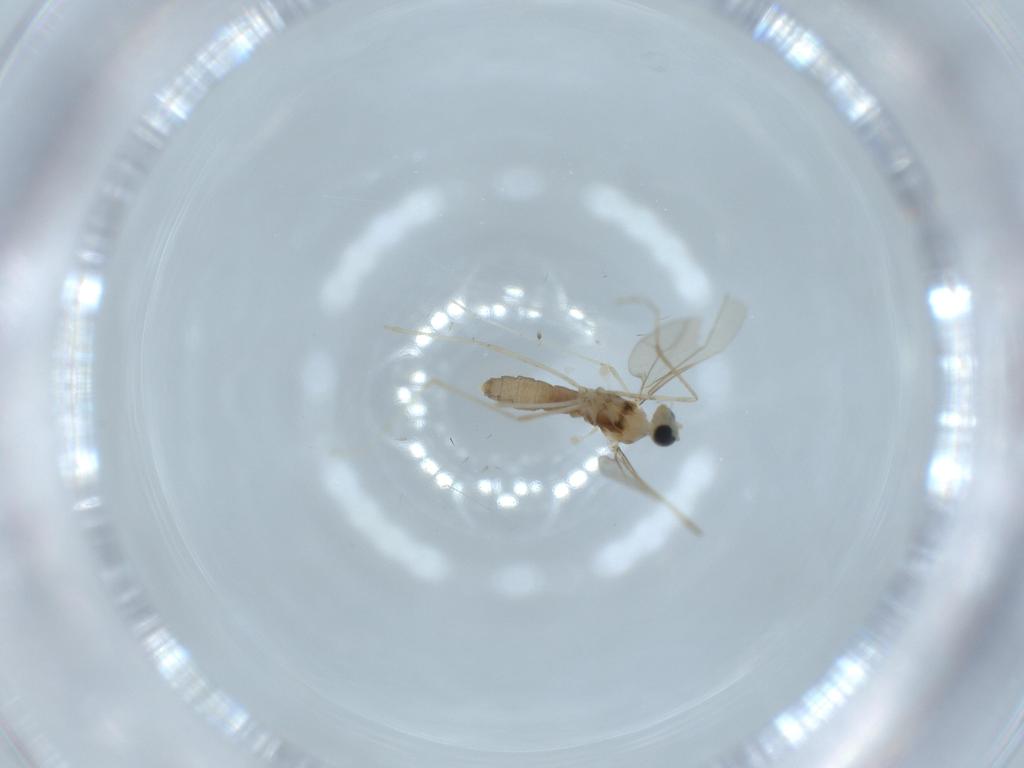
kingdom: Animalia
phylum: Arthropoda
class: Insecta
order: Diptera
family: Cecidomyiidae
